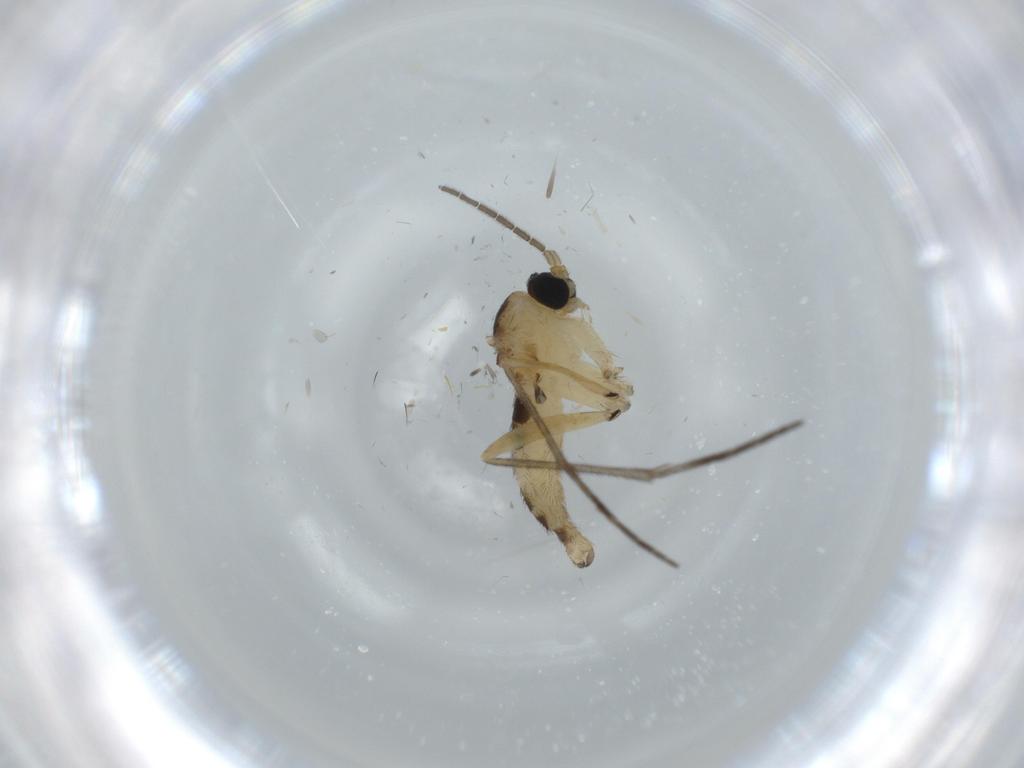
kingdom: Animalia
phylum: Arthropoda
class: Insecta
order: Diptera
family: Sciaridae
